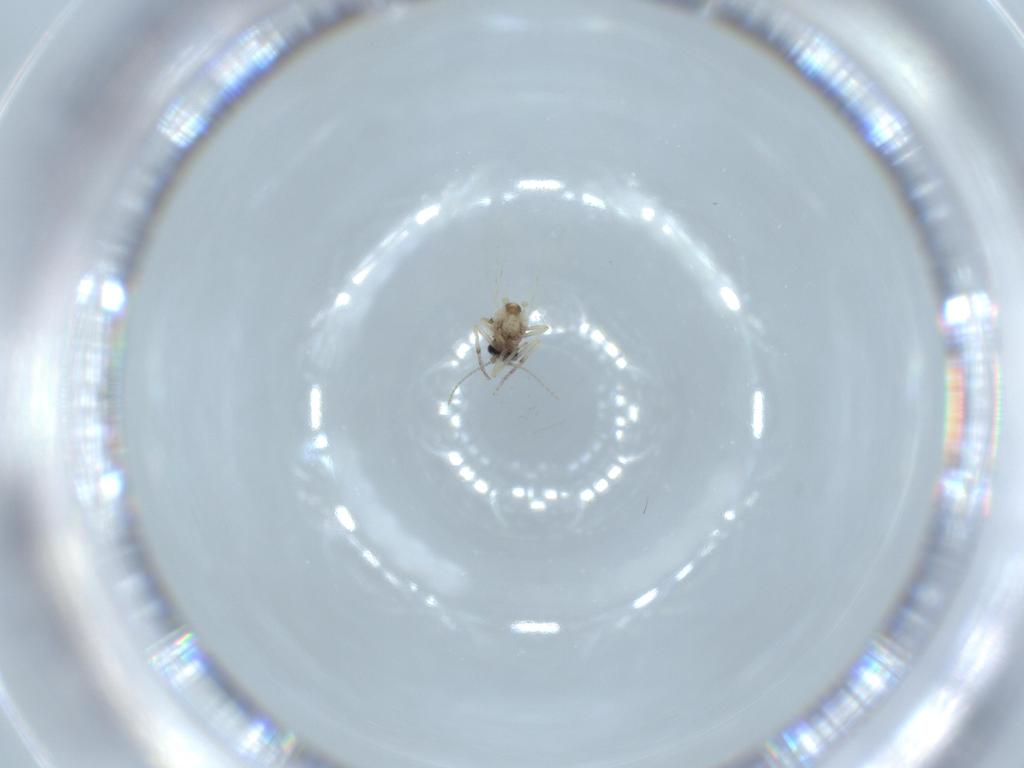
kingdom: Animalia
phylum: Arthropoda
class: Insecta
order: Diptera
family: Ceratopogonidae
